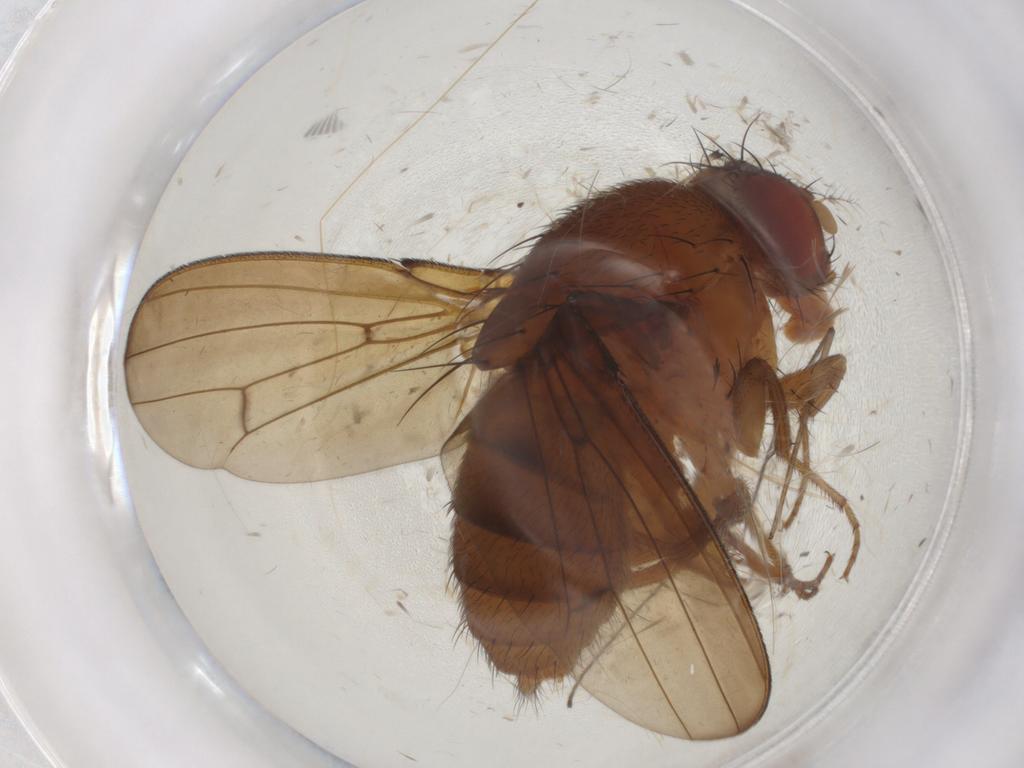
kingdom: Animalia
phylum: Arthropoda
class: Insecta
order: Diptera
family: Drosophilidae
